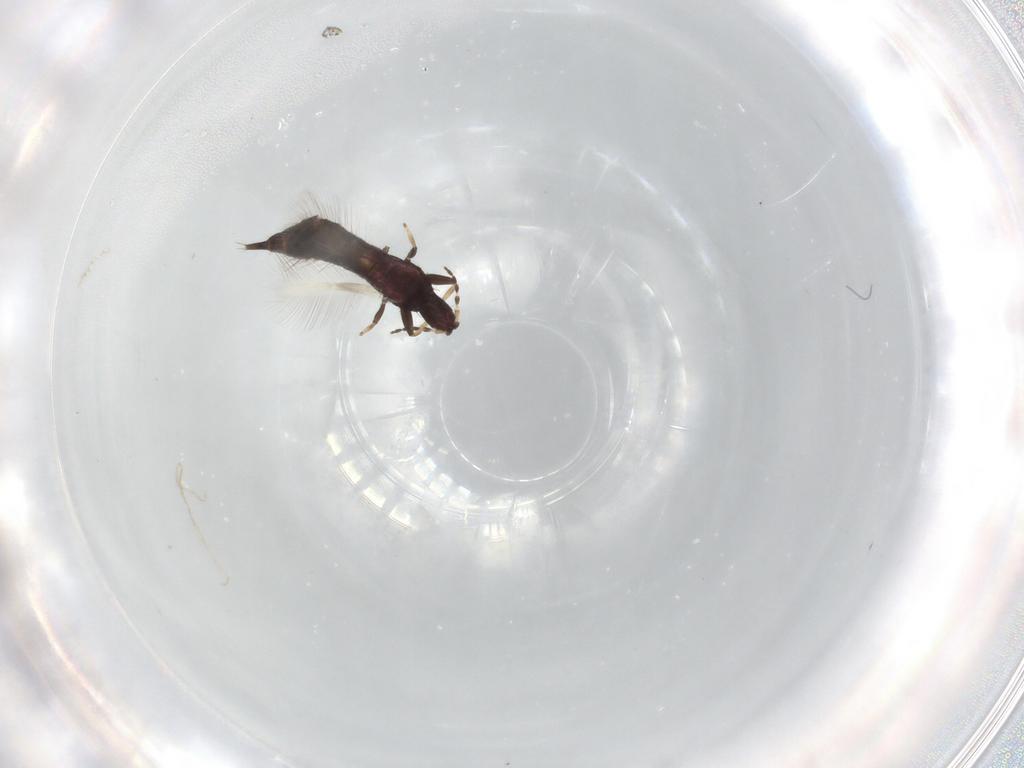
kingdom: Animalia
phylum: Arthropoda
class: Insecta
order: Thysanoptera
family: Phlaeothripidae
